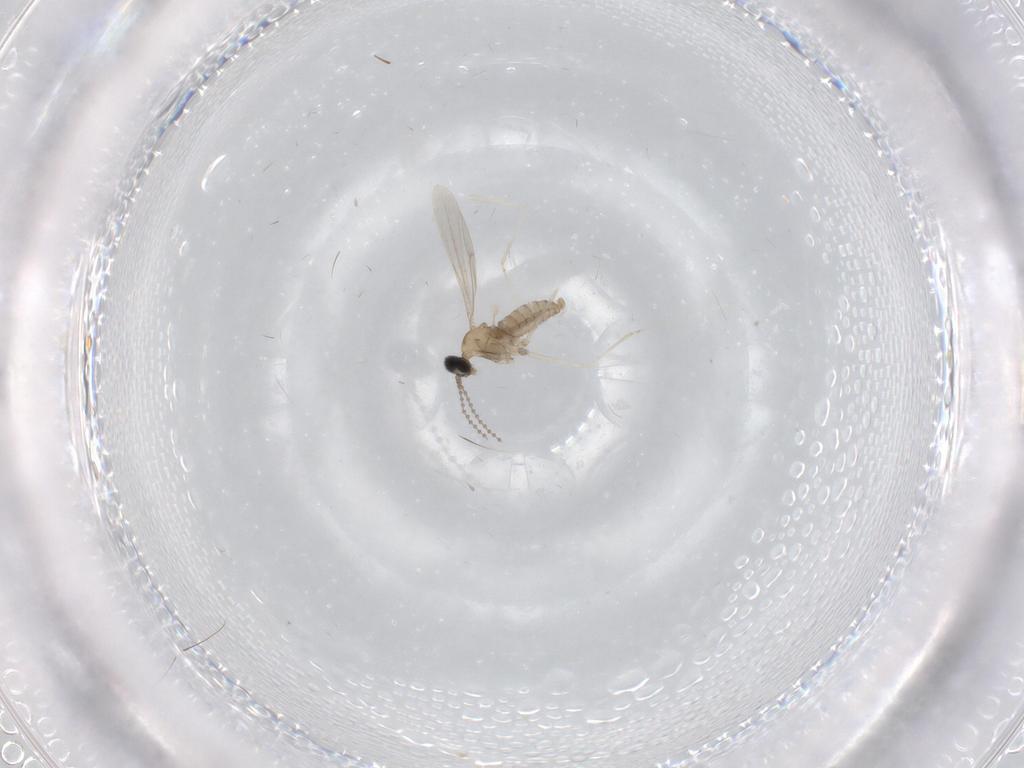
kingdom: Animalia
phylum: Arthropoda
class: Insecta
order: Diptera
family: Cecidomyiidae
